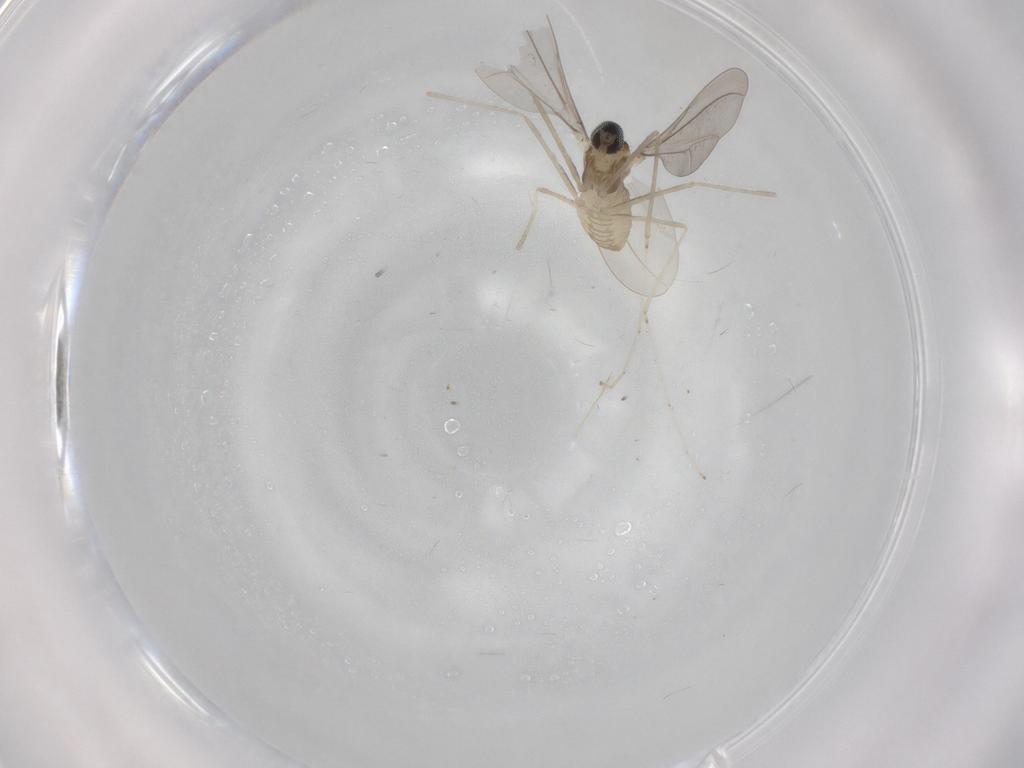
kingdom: Animalia
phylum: Arthropoda
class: Insecta
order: Diptera
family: Cecidomyiidae
